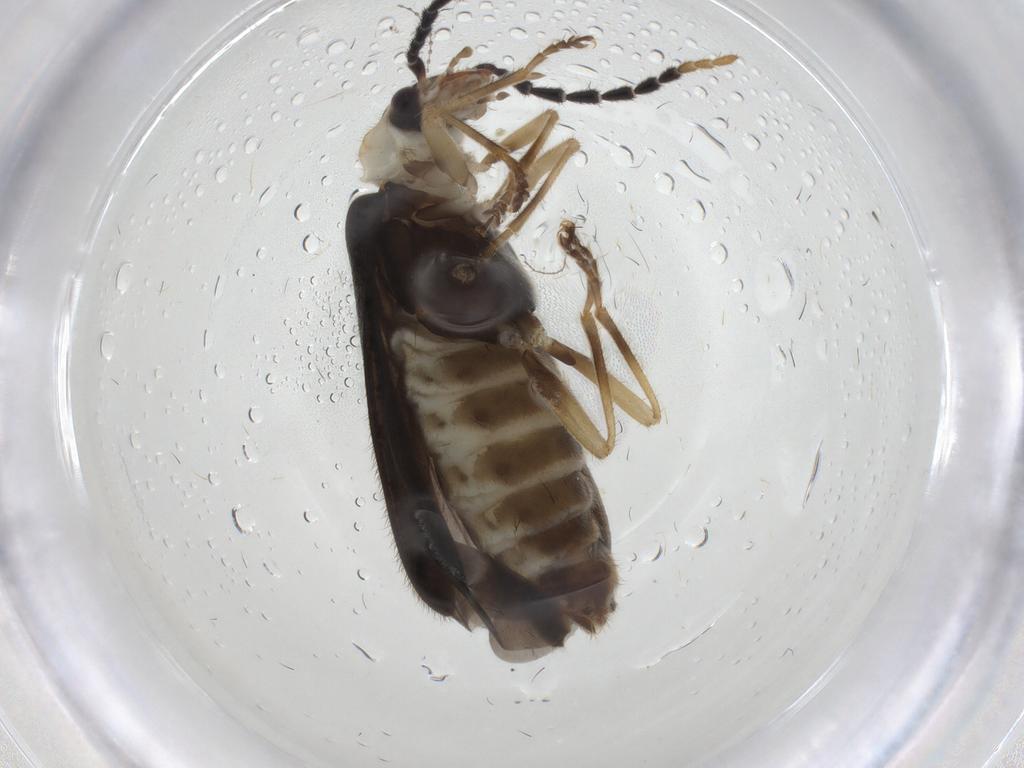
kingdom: Animalia
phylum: Arthropoda
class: Insecta
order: Coleoptera
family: Cantharidae
